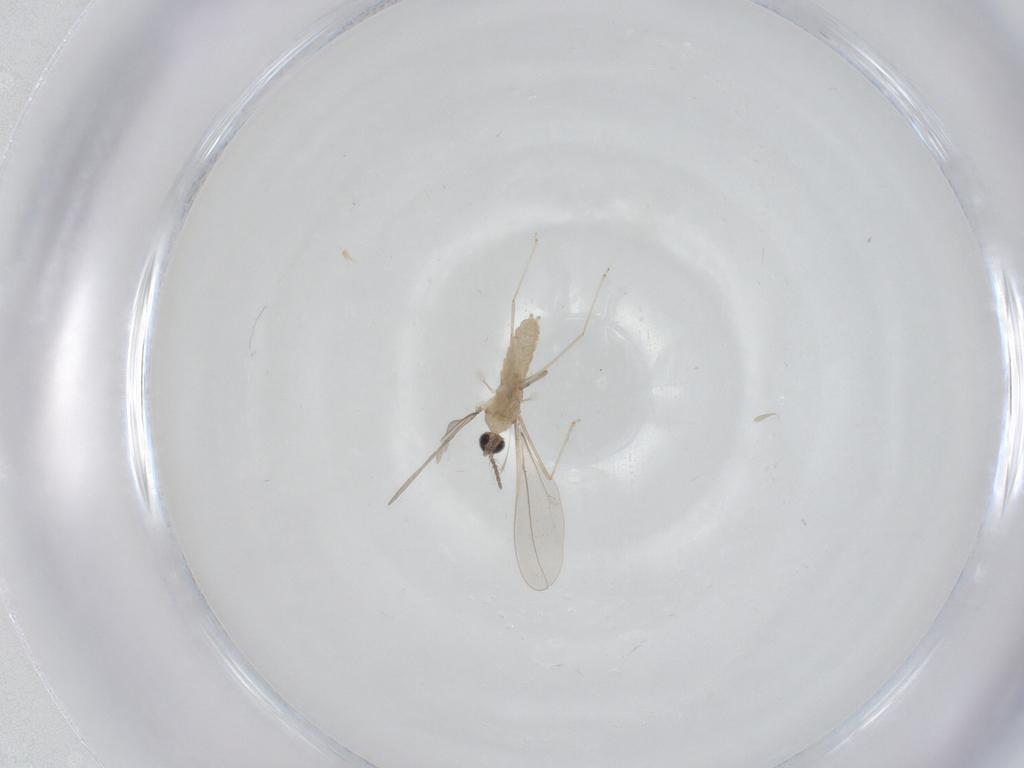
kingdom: Animalia
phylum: Arthropoda
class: Insecta
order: Diptera
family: Cecidomyiidae
